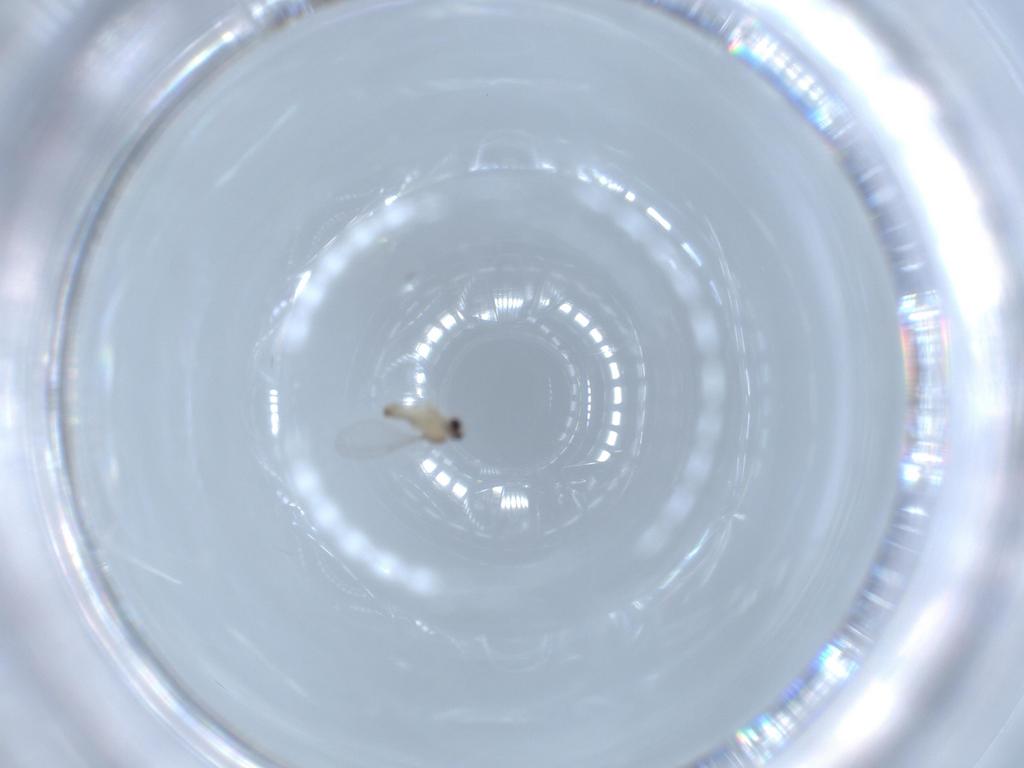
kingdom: Animalia
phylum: Arthropoda
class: Insecta
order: Diptera
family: Cecidomyiidae
